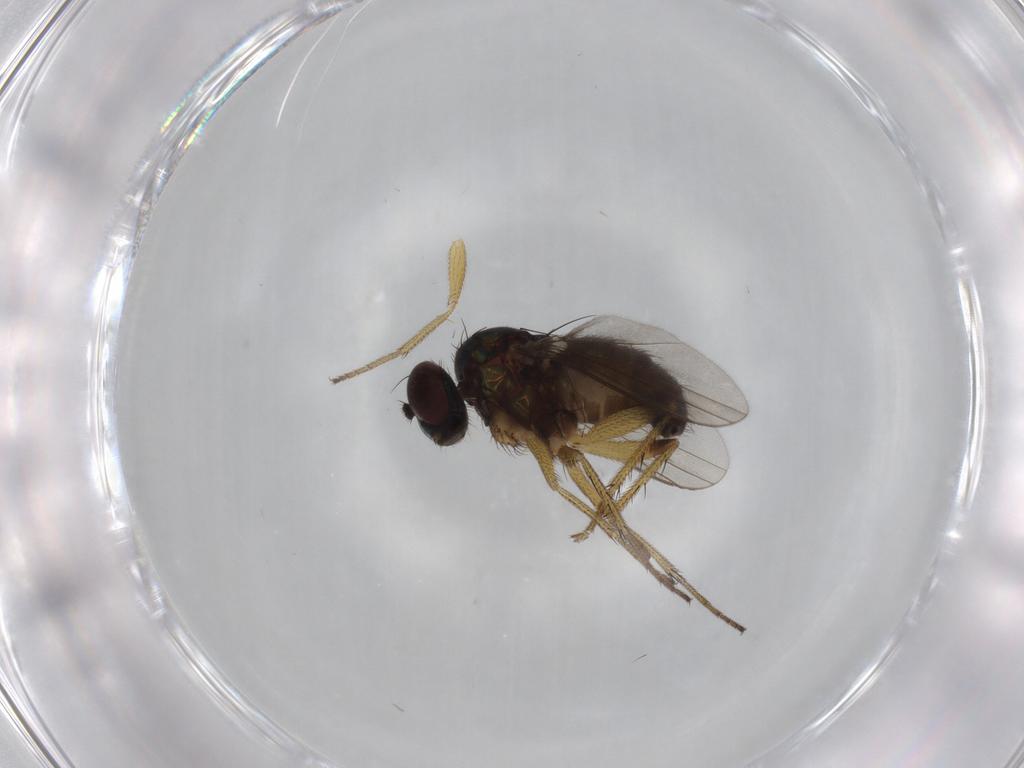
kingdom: Animalia
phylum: Arthropoda
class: Insecta
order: Diptera
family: Dolichopodidae
